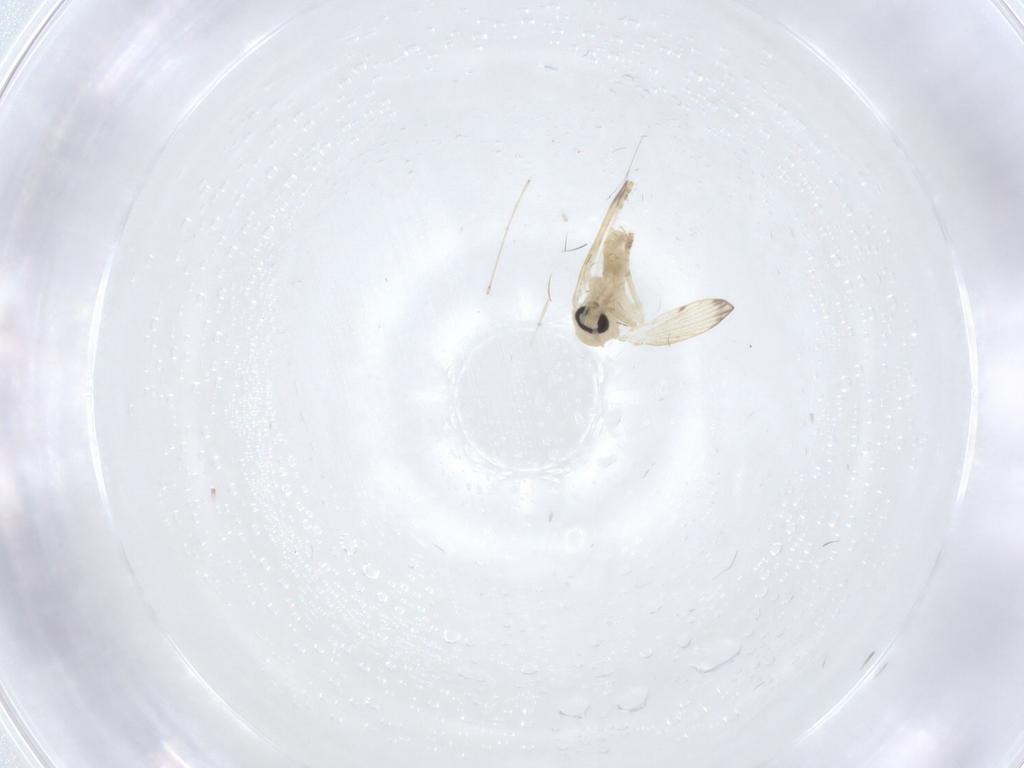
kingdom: Animalia
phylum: Arthropoda
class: Insecta
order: Diptera
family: Psychodidae
